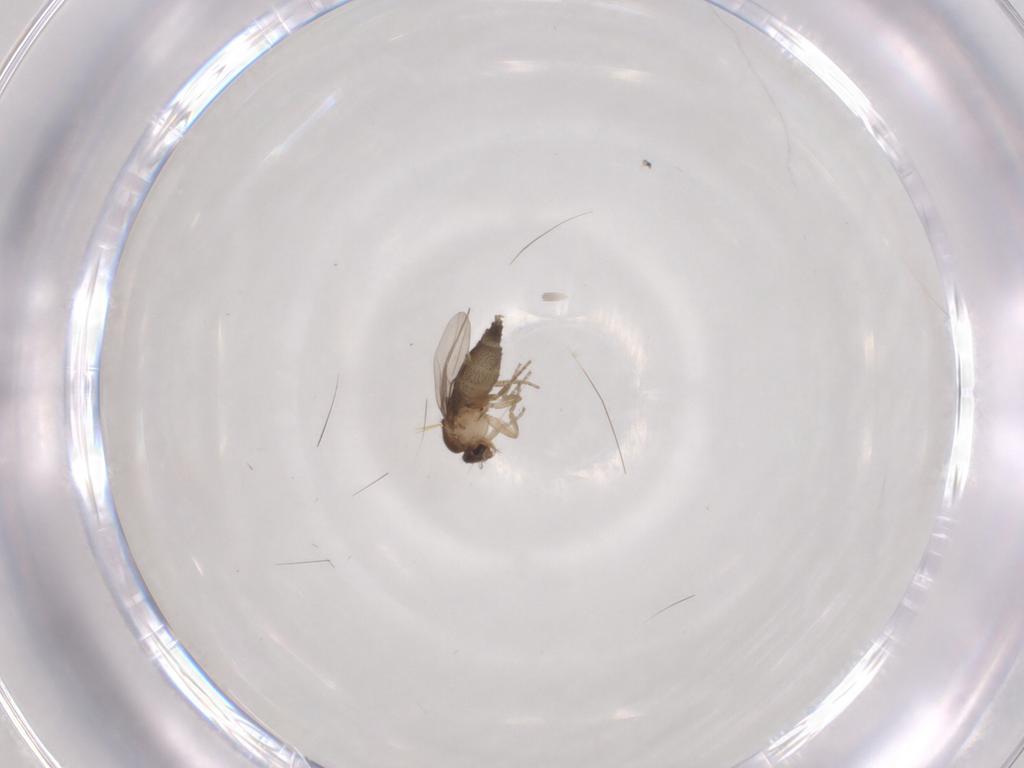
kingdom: Animalia
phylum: Arthropoda
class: Insecta
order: Diptera
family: Phoridae
